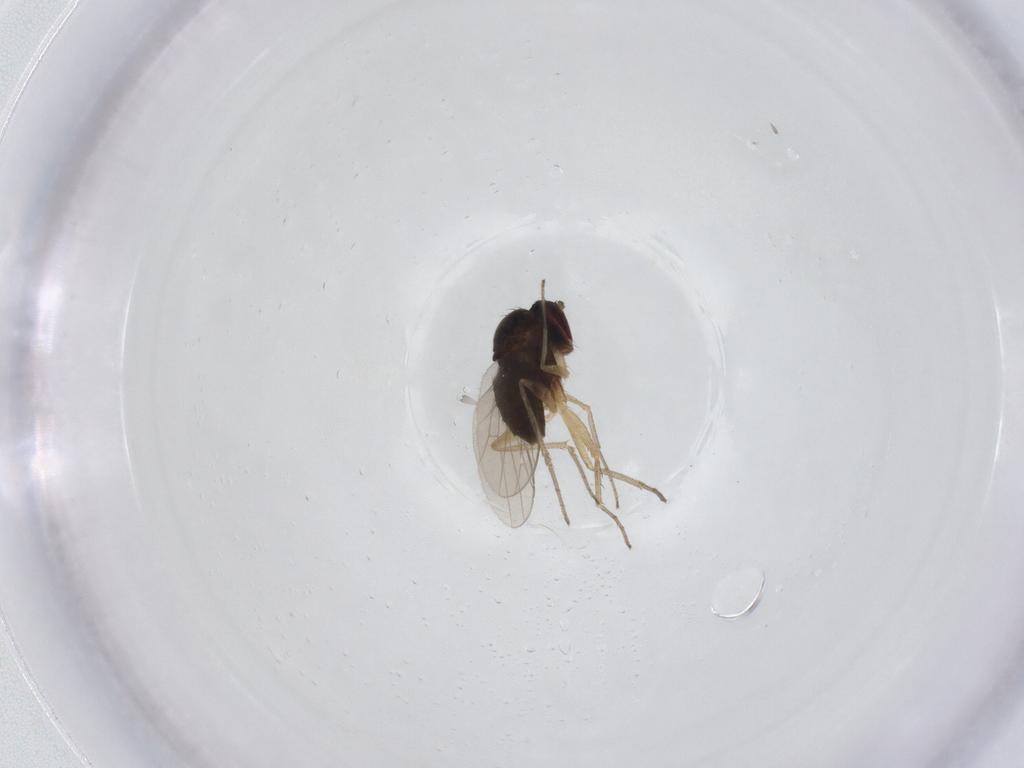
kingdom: Animalia
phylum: Arthropoda
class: Insecta
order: Diptera
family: Dolichopodidae
